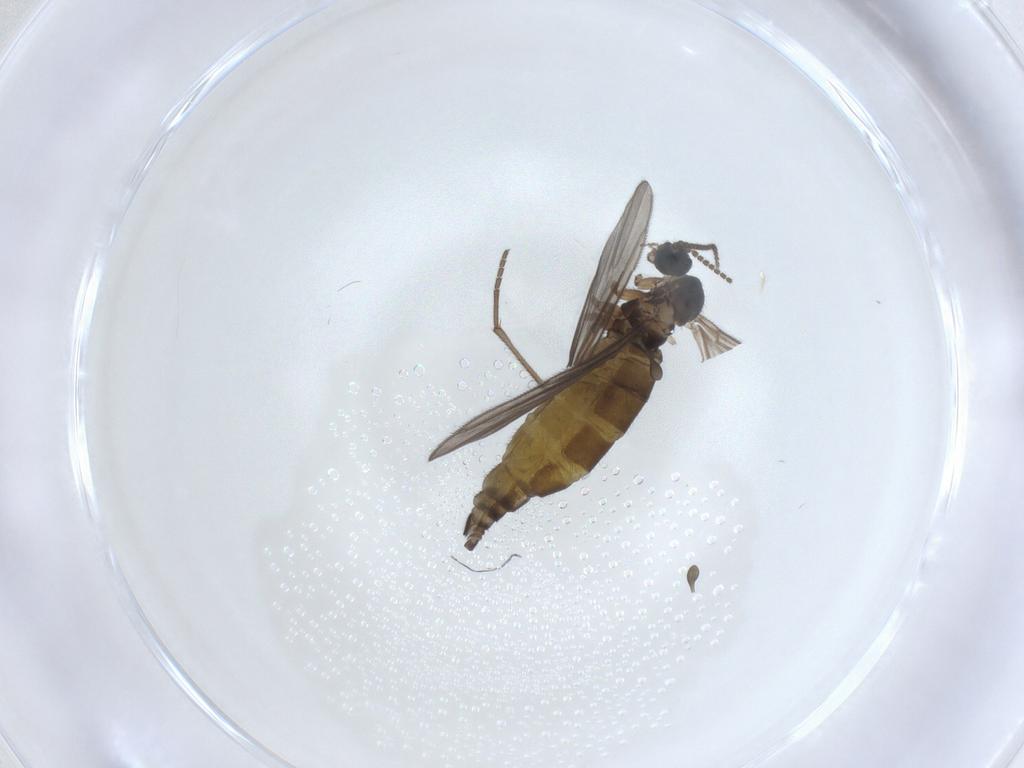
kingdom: Animalia
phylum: Arthropoda
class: Insecta
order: Diptera
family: Sciaridae
